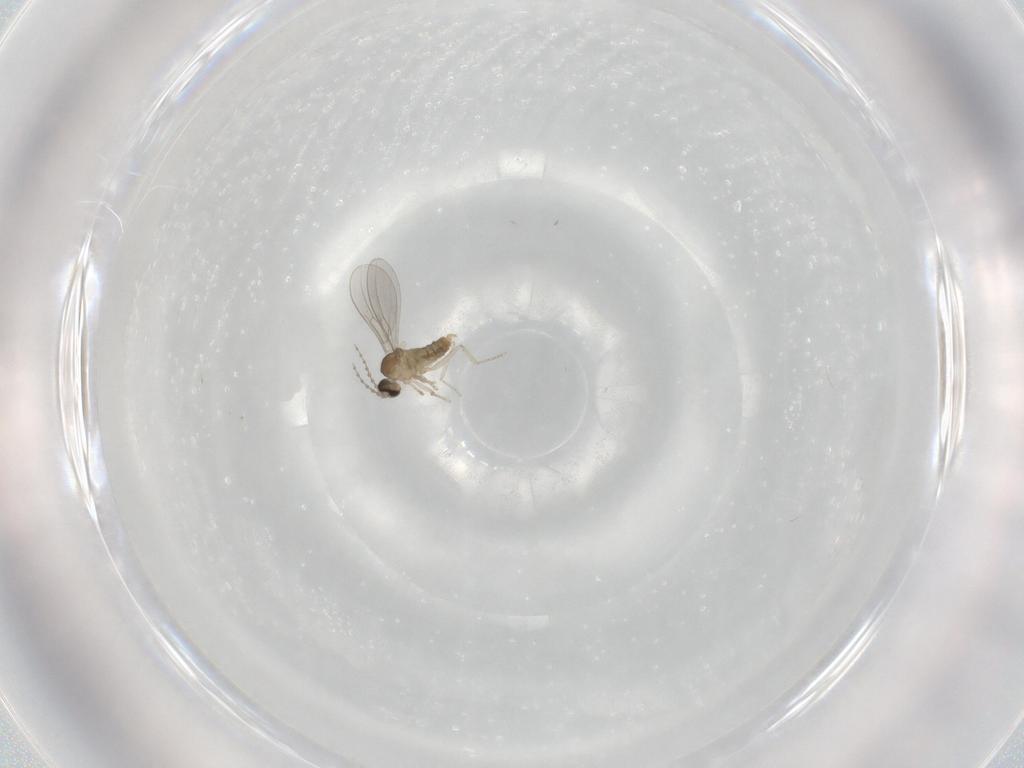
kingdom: Animalia
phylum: Arthropoda
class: Insecta
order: Diptera
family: Cecidomyiidae
